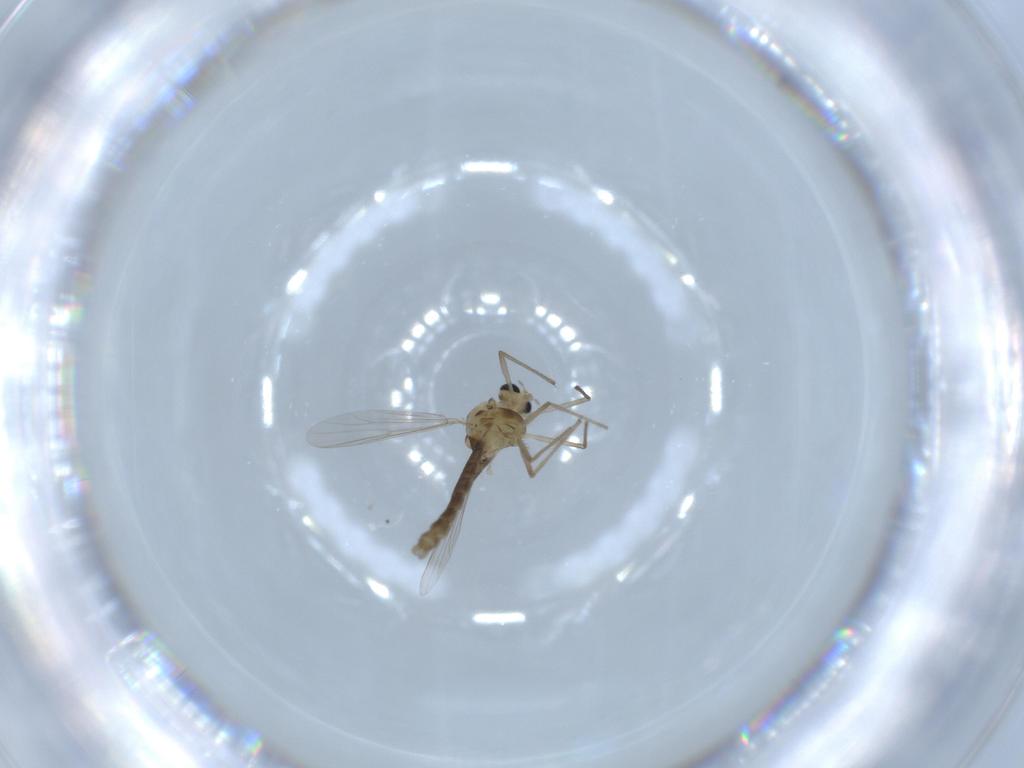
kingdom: Animalia
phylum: Arthropoda
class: Insecta
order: Diptera
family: Chironomidae
